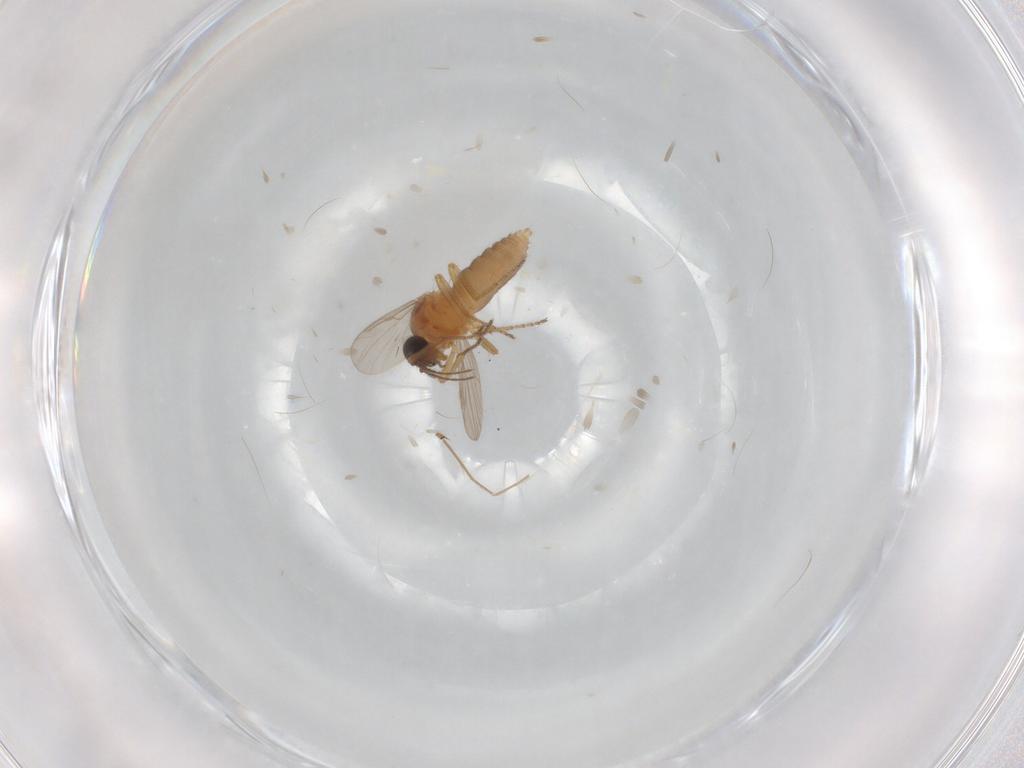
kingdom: Animalia
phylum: Arthropoda
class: Insecta
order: Diptera
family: Ceratopogonidae
